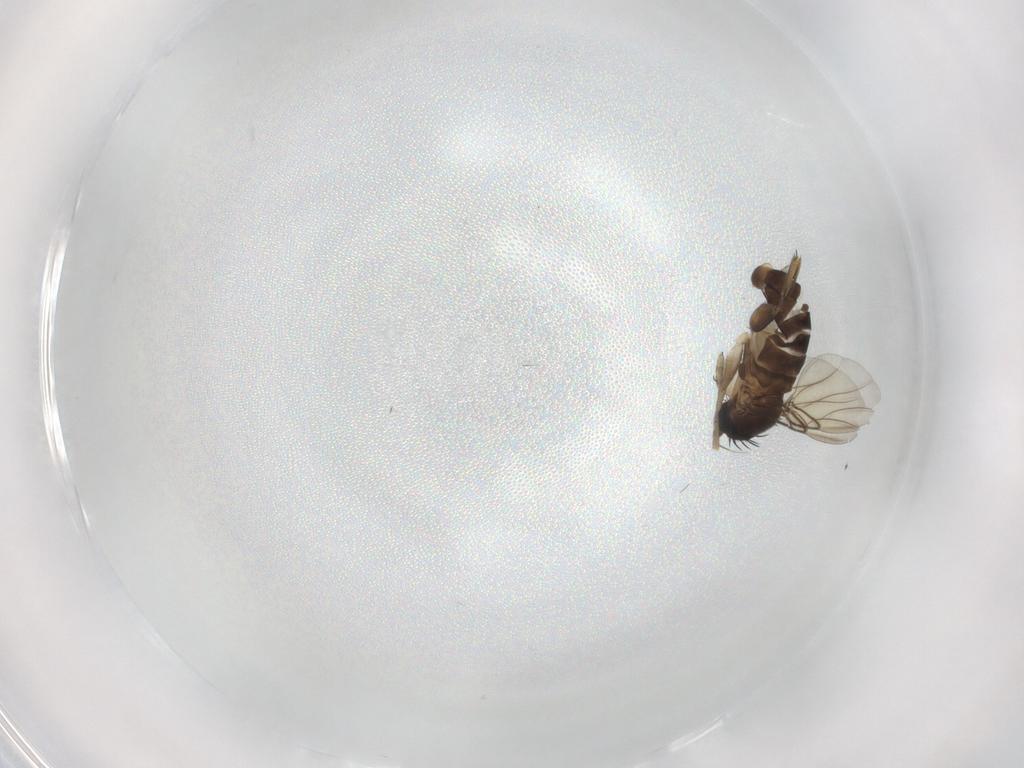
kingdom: Animalia
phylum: Arthropoda
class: Insecta
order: Diptera
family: Phoridae
